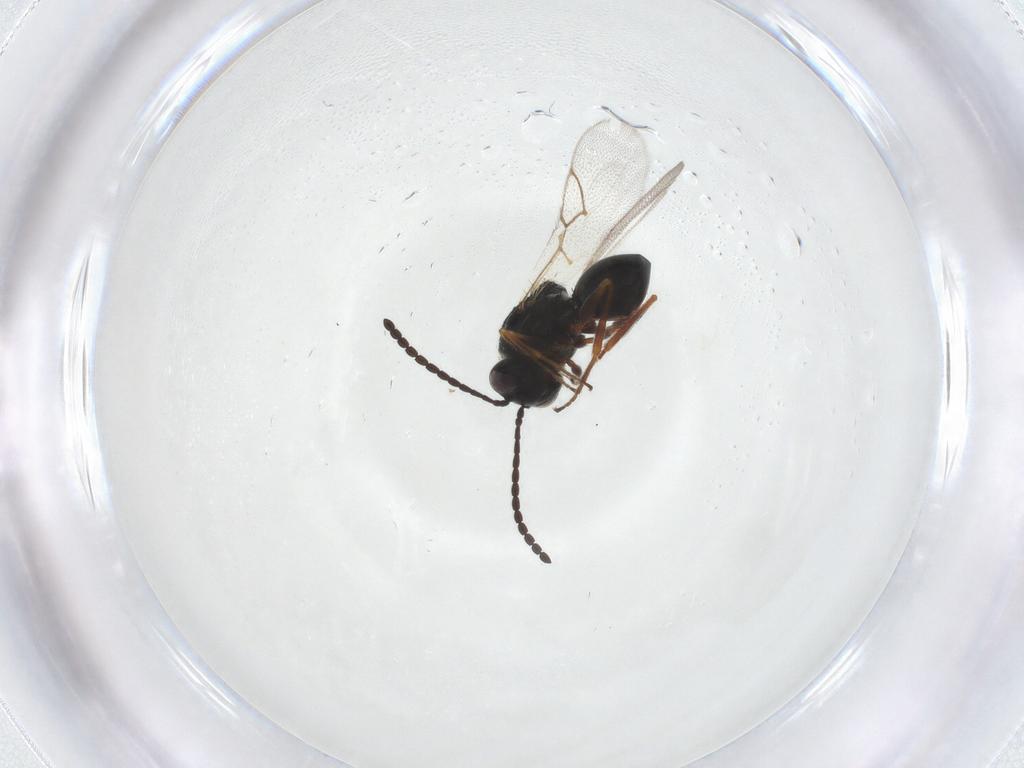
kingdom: Animalia
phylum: Arthropoda
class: Insecta
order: Hymenoptera
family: Figitidae
